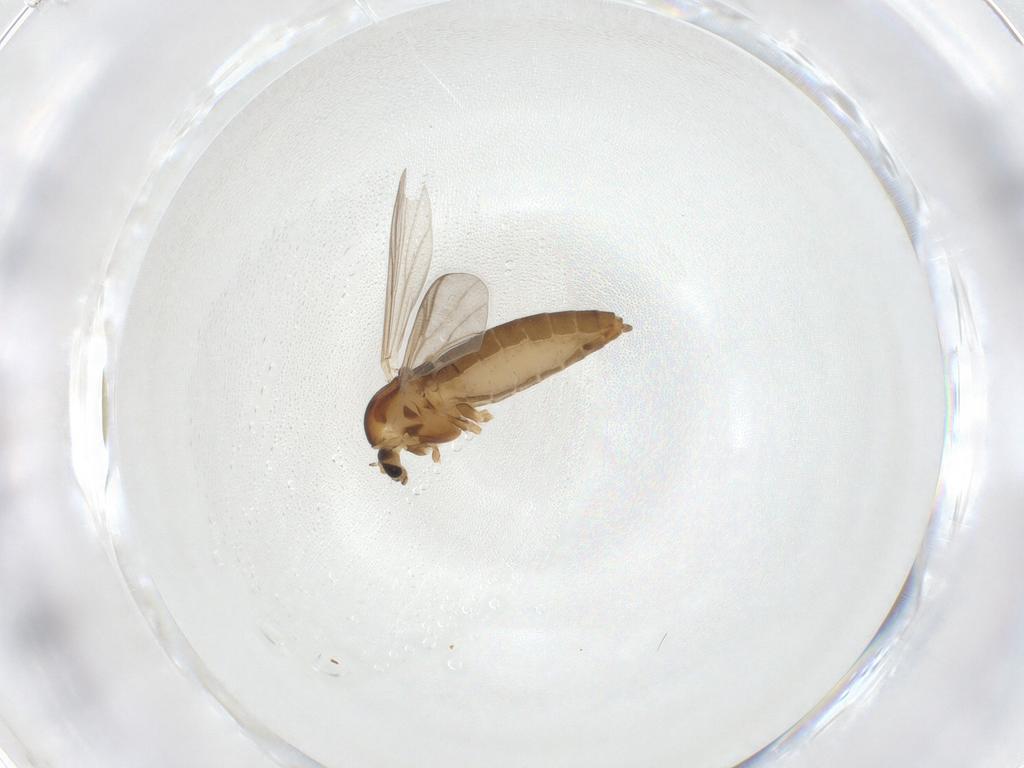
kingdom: Animalia
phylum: Arthropoda
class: Insecta
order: Diptera
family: Chironomidae
